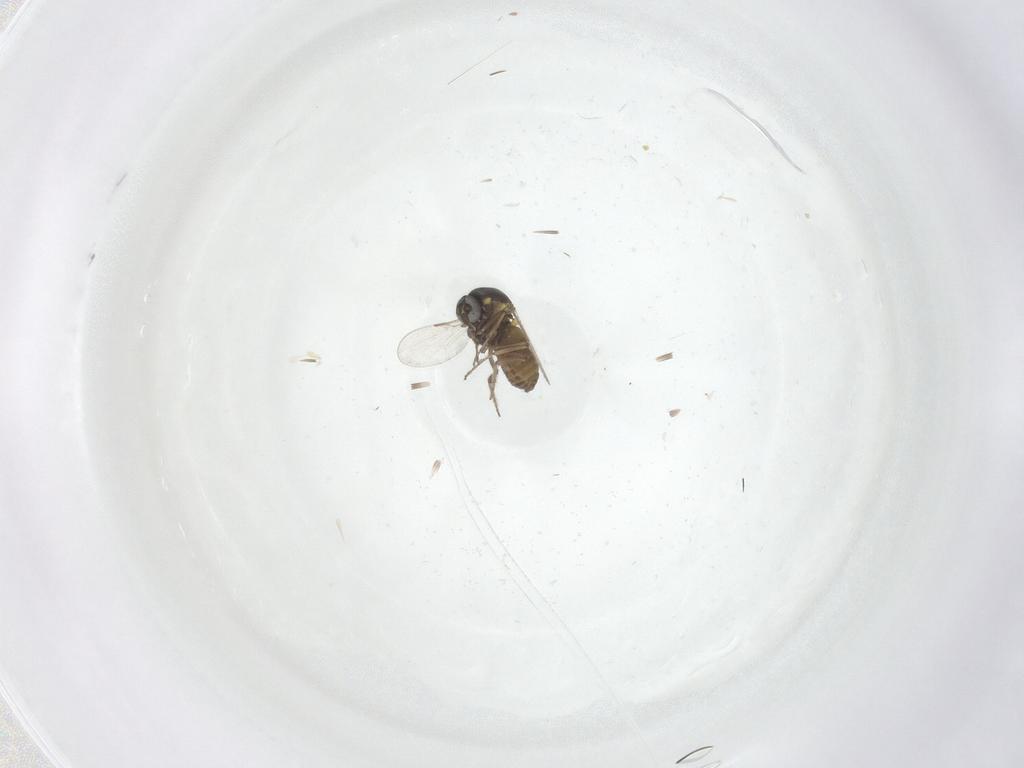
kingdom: Animalia
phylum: Arthropoda
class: Insecta
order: Diptera
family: Ceratopogonidae
